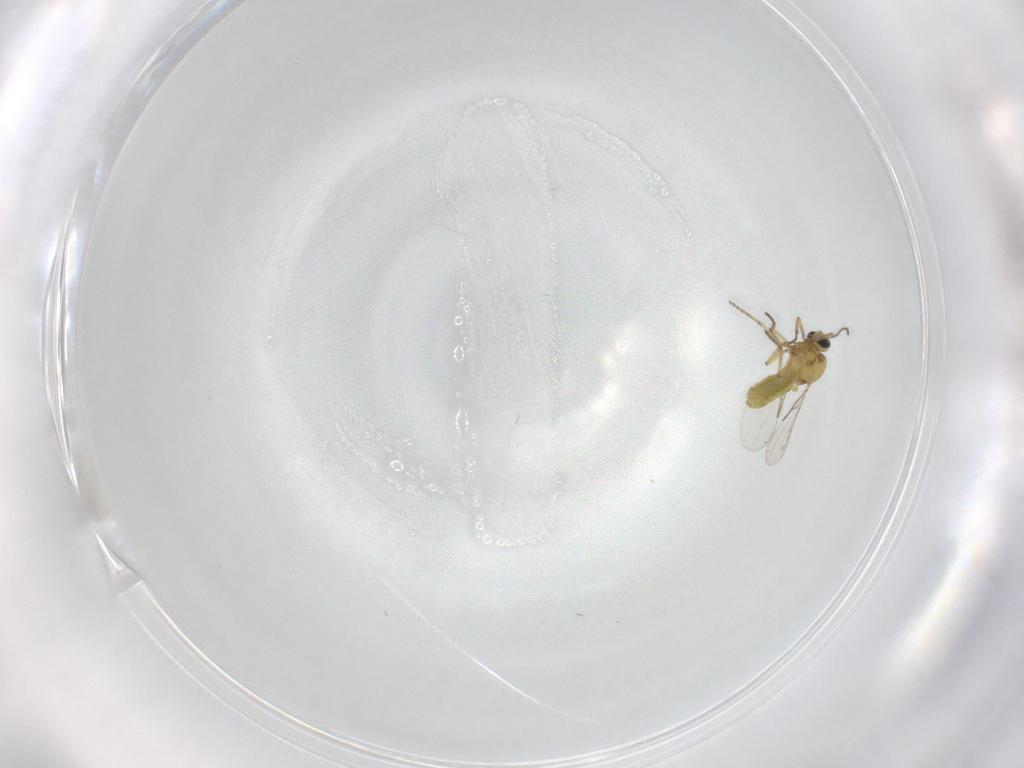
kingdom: Animalia
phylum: Arthropoda
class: Insecta
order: Diptera
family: Ceratopogonidae
